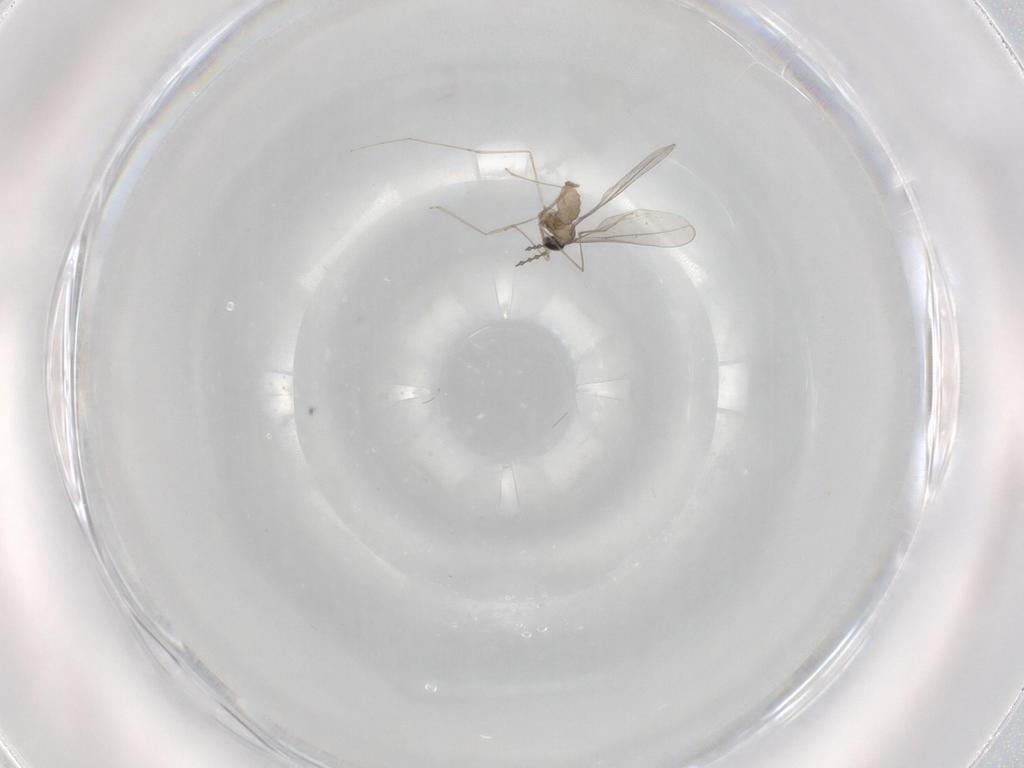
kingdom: Animalia
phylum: Arthropoda
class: Insecta
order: Diptera
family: Cecidomyiidae
